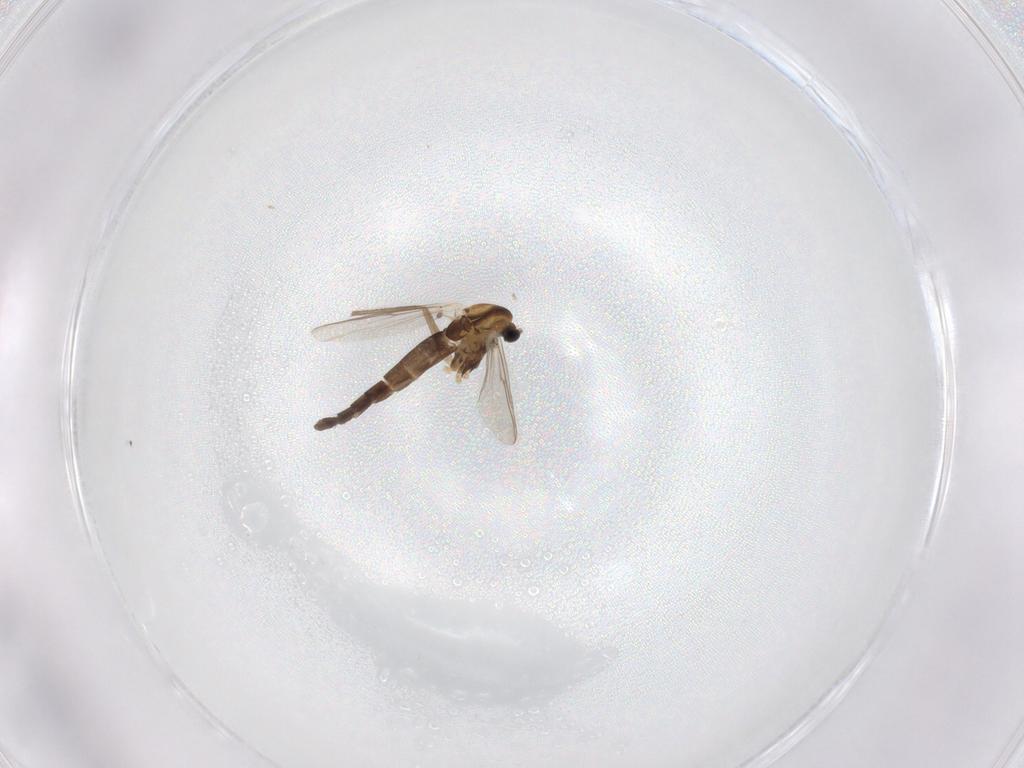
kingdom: Animalia
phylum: Arthropoda
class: Insecta
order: Diptera
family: Chironomidae
